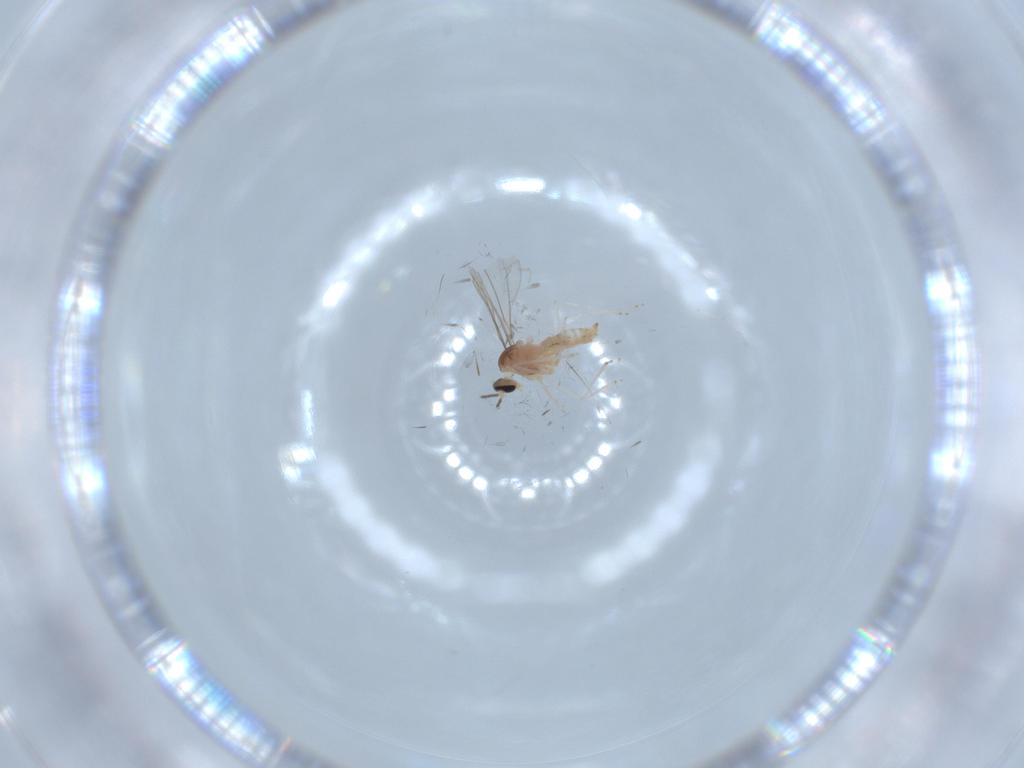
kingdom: Animalia
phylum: Arthropoda
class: Insecta
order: Diptera
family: Cecidomyiidae
